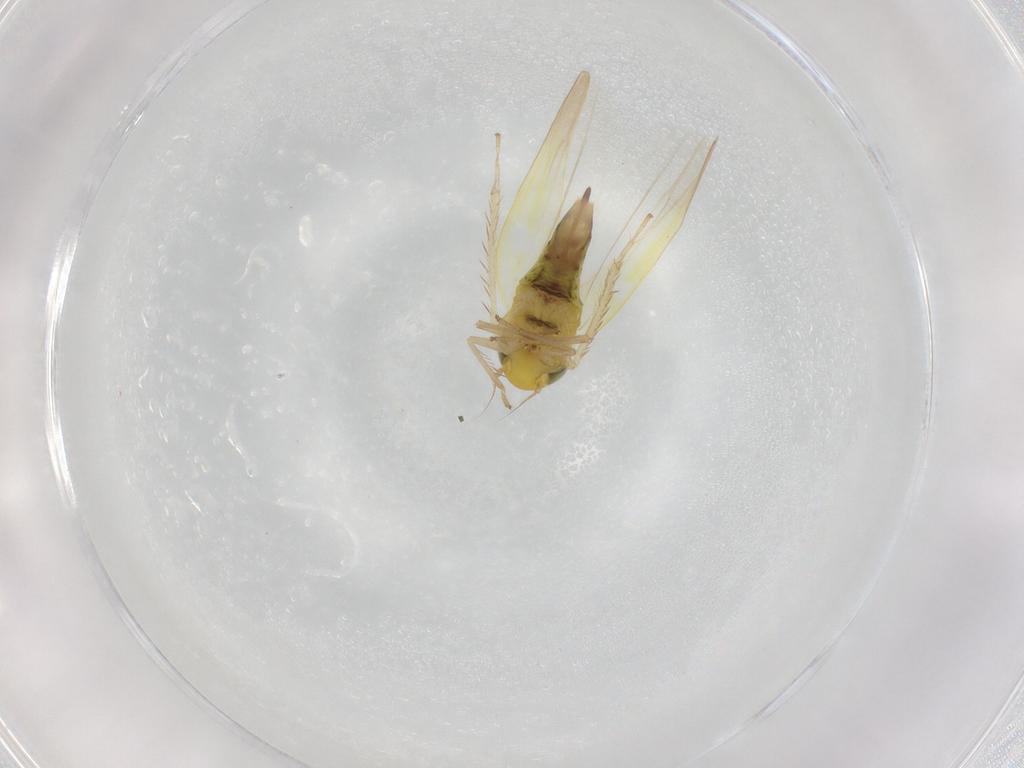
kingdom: Animalia
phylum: Arthropoda
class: Insecta
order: Hemiptera
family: Cicadellidae
